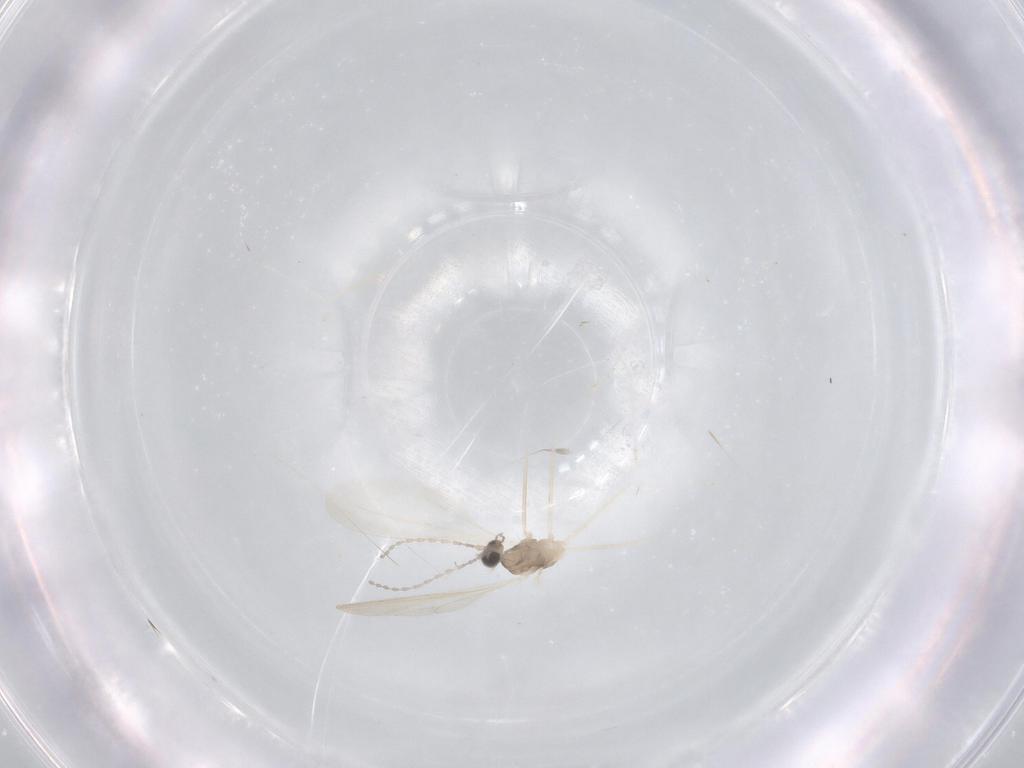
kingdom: Animalia
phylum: Arthropoda
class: Insecta
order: Diptera
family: Cecidomyiidae
